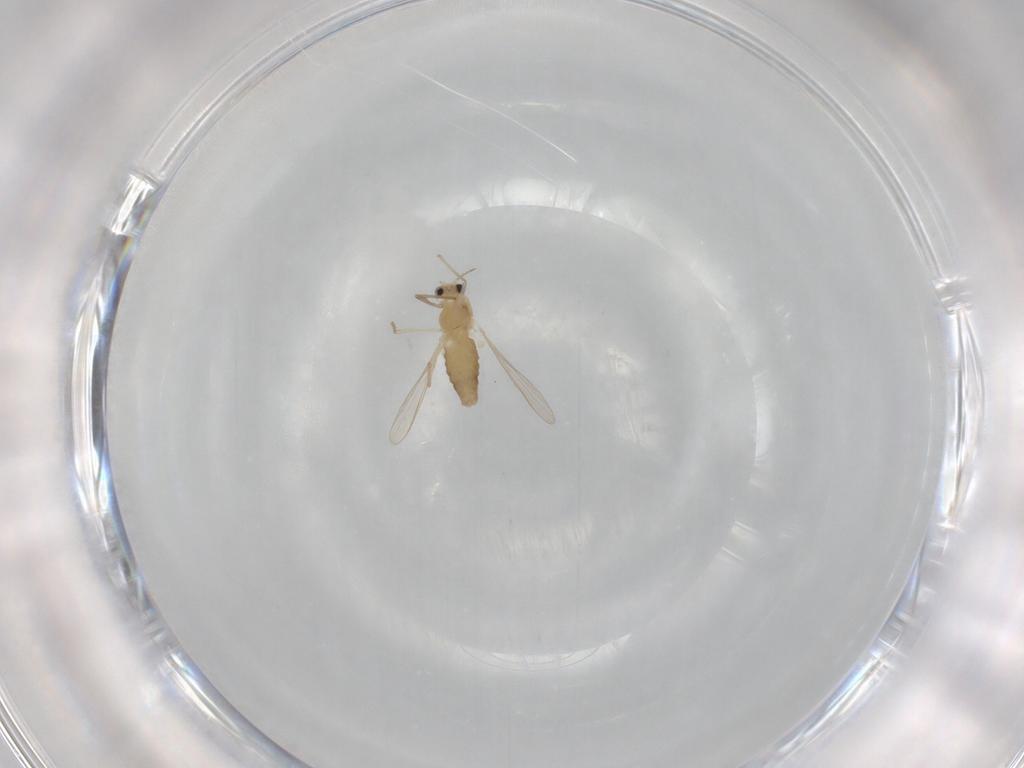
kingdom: Animalia
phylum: Arthropoda
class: Insecta
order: Diptera
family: Chironomidae
